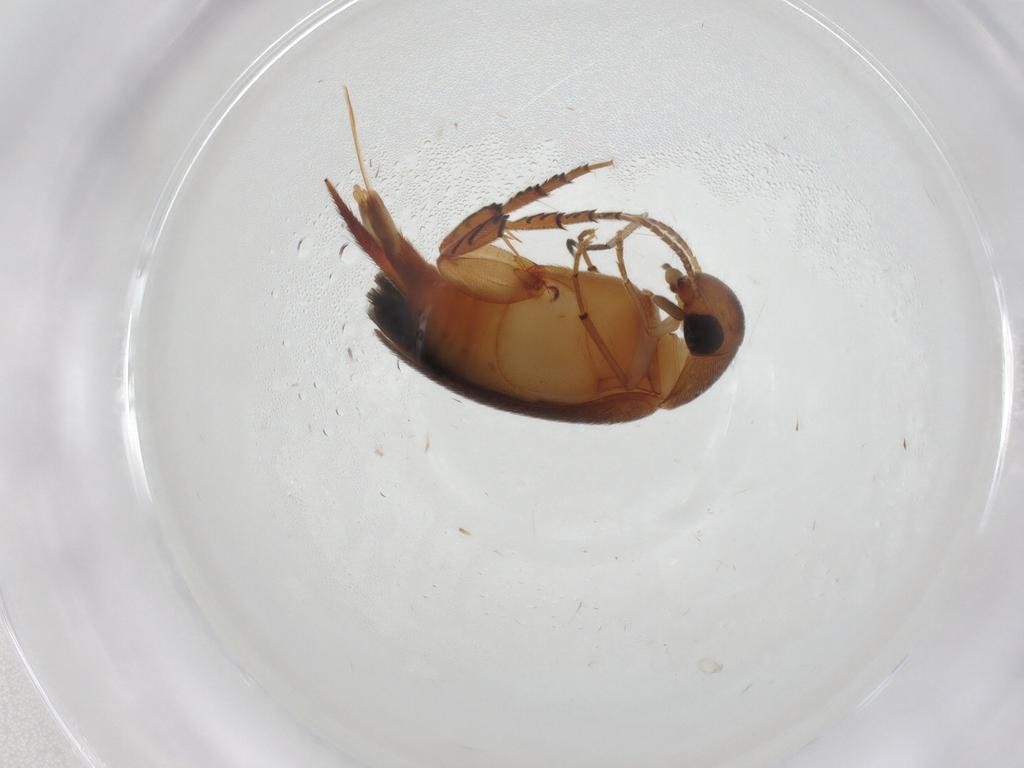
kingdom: Animalia
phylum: Arthropoda
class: Insecta
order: Coleoptera
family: Mordellidae
